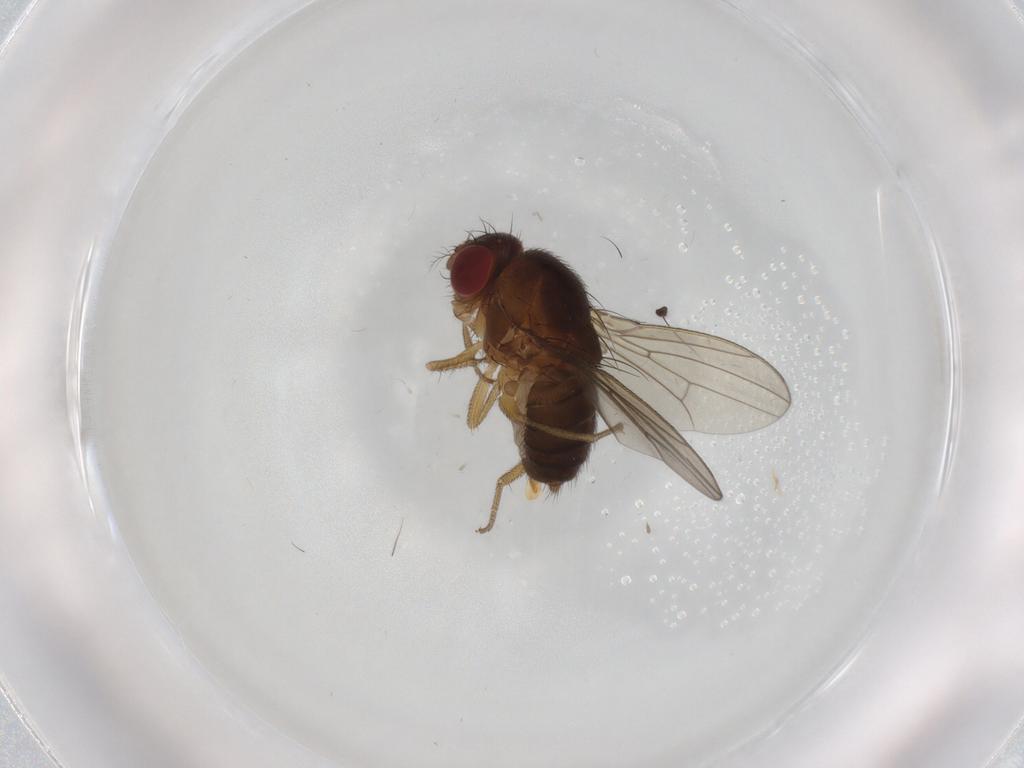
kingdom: Animalia
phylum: Arthropoda
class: Insecta
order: Diptera
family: Drosophilidae
